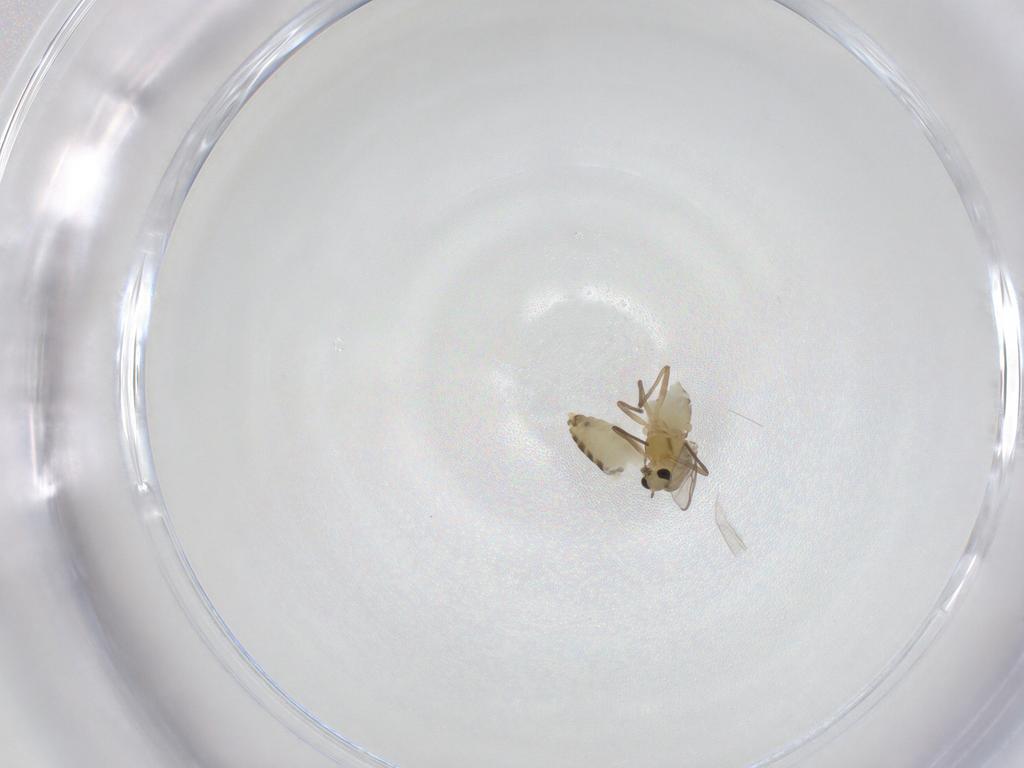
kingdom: Animalia
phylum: Arthropoda
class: Insecta
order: Diptera
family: Chironomidae
